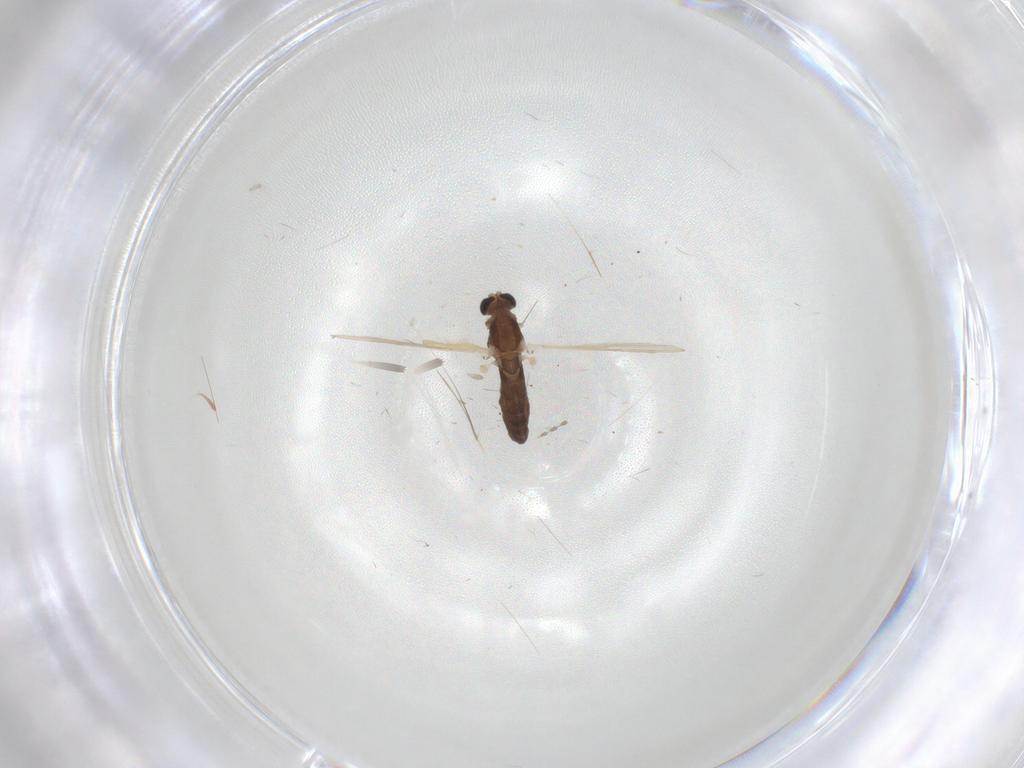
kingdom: Animalia
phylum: Arthropoda
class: Insecta
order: Diptera
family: Chironomidae
